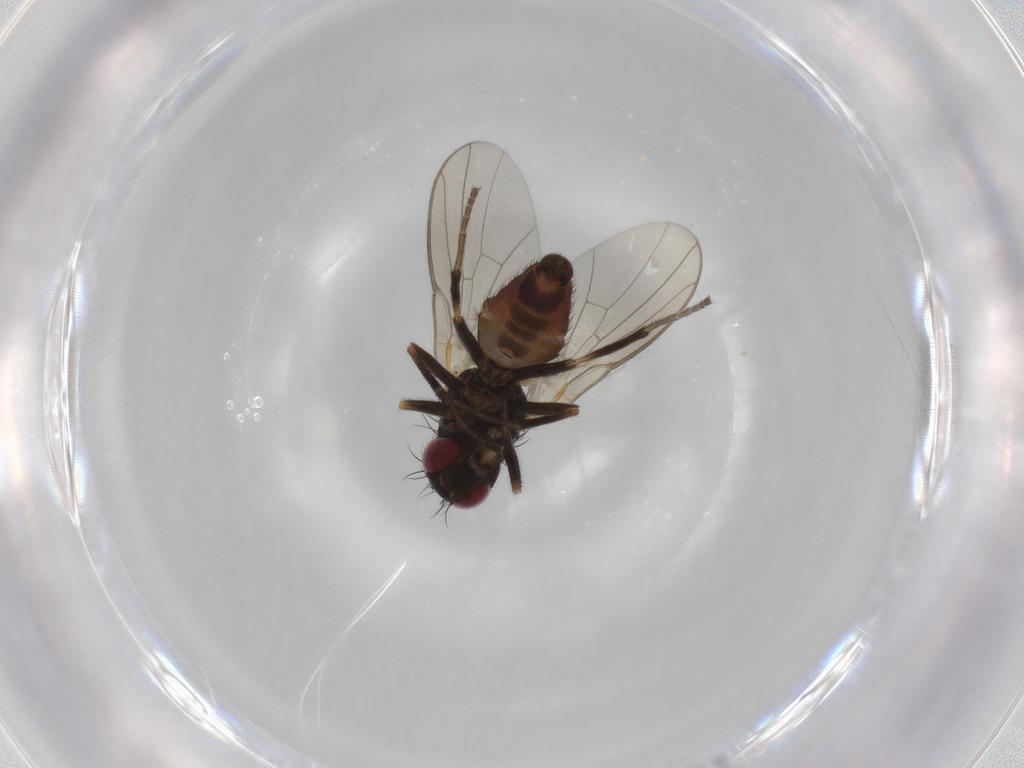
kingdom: Animalia
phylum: Arthropoda
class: Insecta
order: Diptera
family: Agromyzidae
